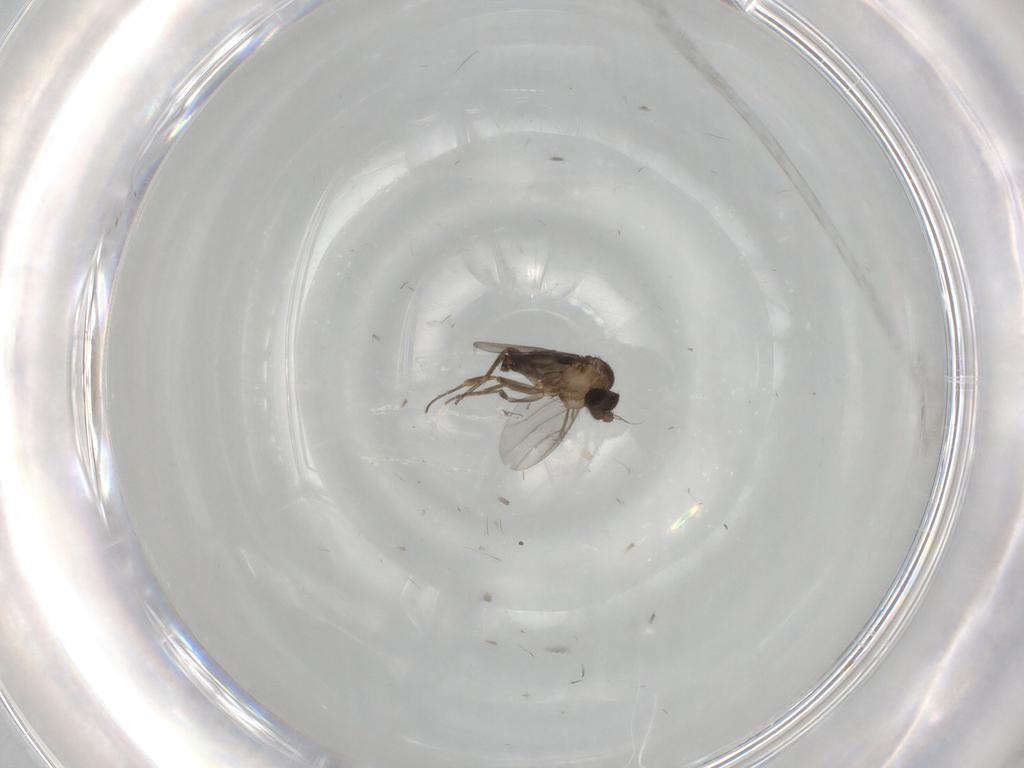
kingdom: Animalia
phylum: Arthropoda
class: Insecta
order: Diptera
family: Phoridae
